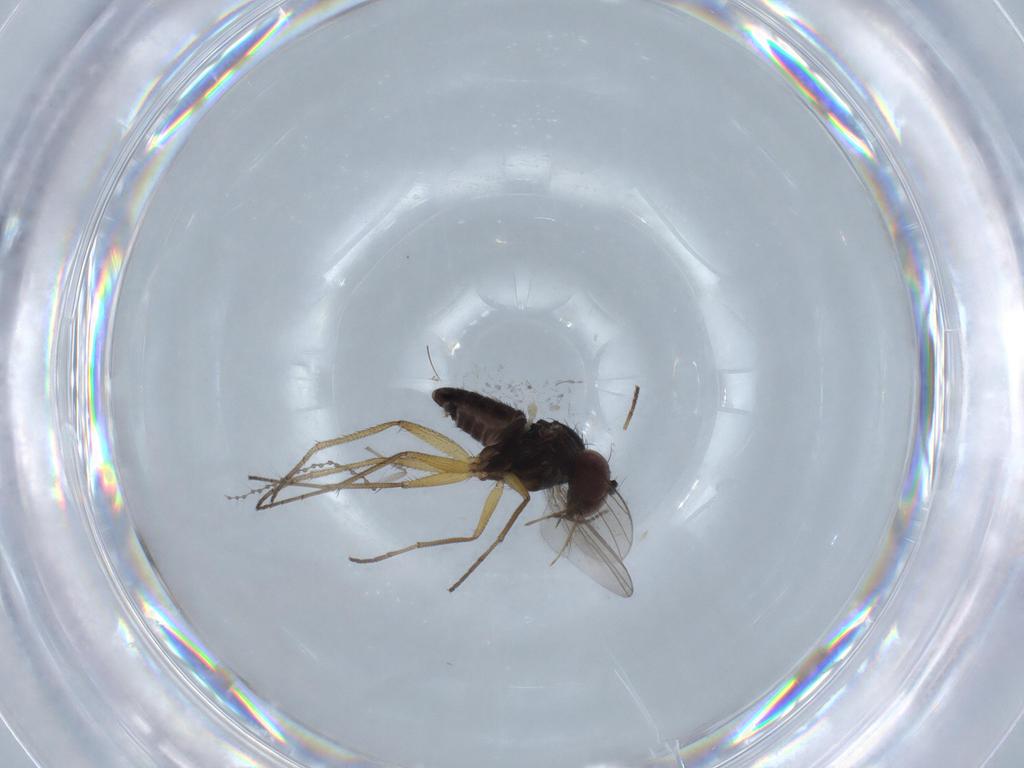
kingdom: Animalia
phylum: Arthropoda
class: Insecta
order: Diptera
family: Dolichopodidae
